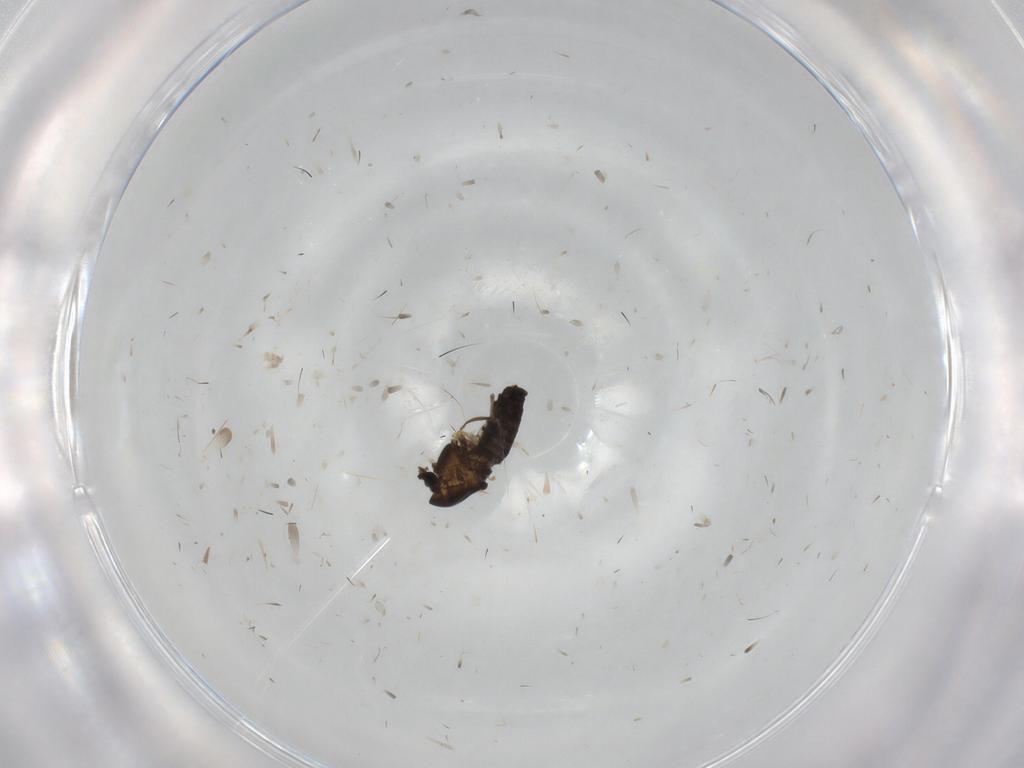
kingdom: Animalia
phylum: Arthropoda
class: Insecta
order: Diptera
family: Chironomidae
